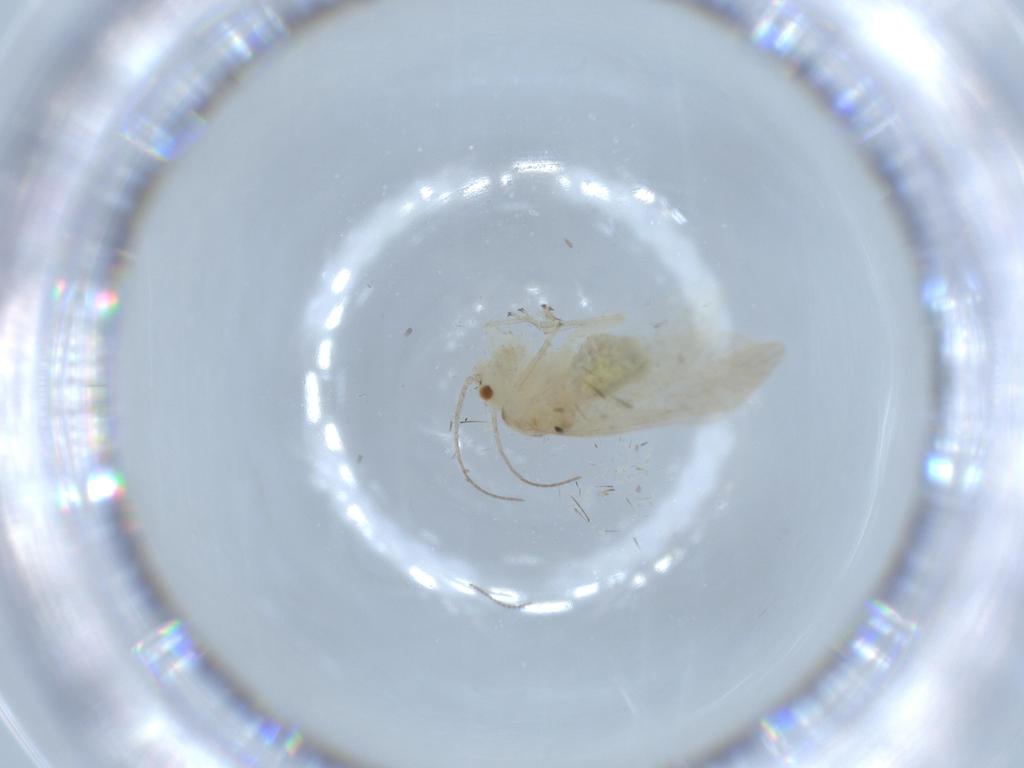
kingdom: Animalia
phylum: Arthropoda
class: Insecta
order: Psocodea
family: Caeciliusidae
